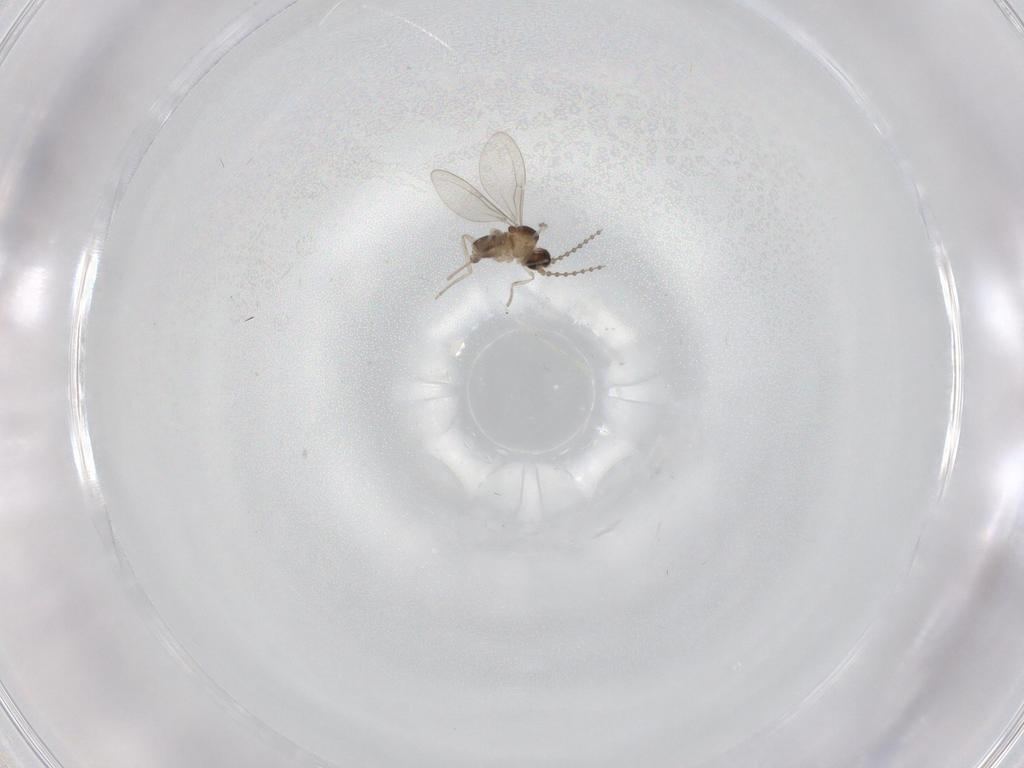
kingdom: Animalia
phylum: Arthropoda
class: Insecta
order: Diptera
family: Cecidomyiidae
